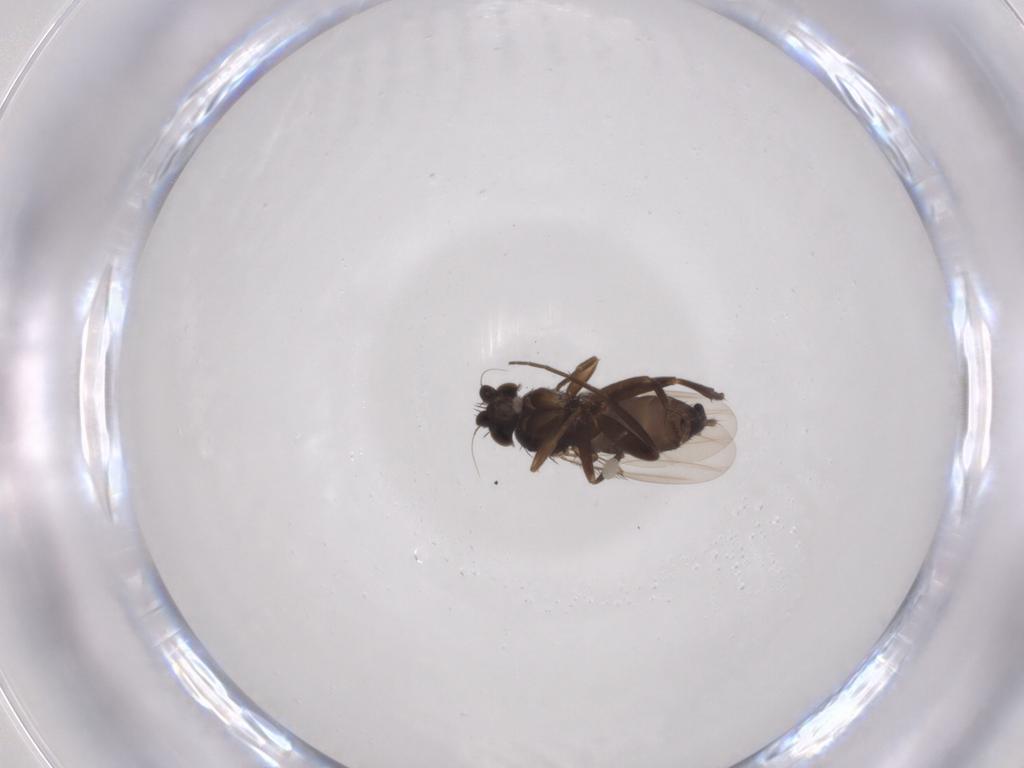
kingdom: Animalia
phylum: Arthropoda
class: Insecta
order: Diptera
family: Phoridae
